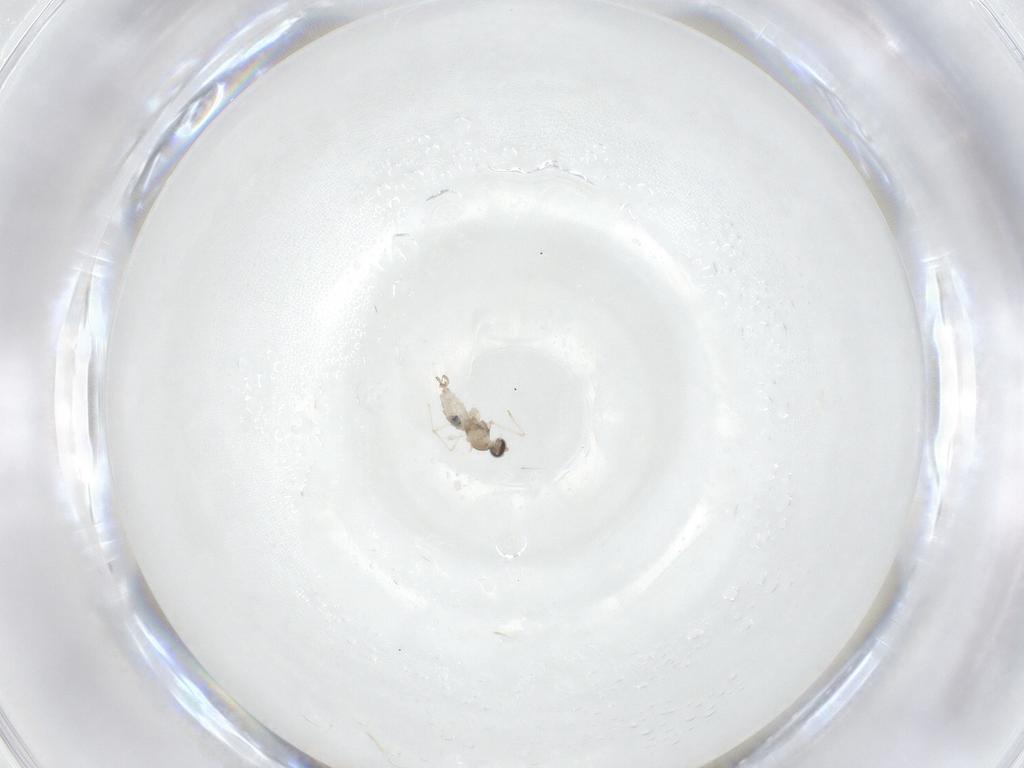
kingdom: Animalia
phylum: Arthropoda
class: Insecta
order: Diptera
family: Cecidomyiidae
